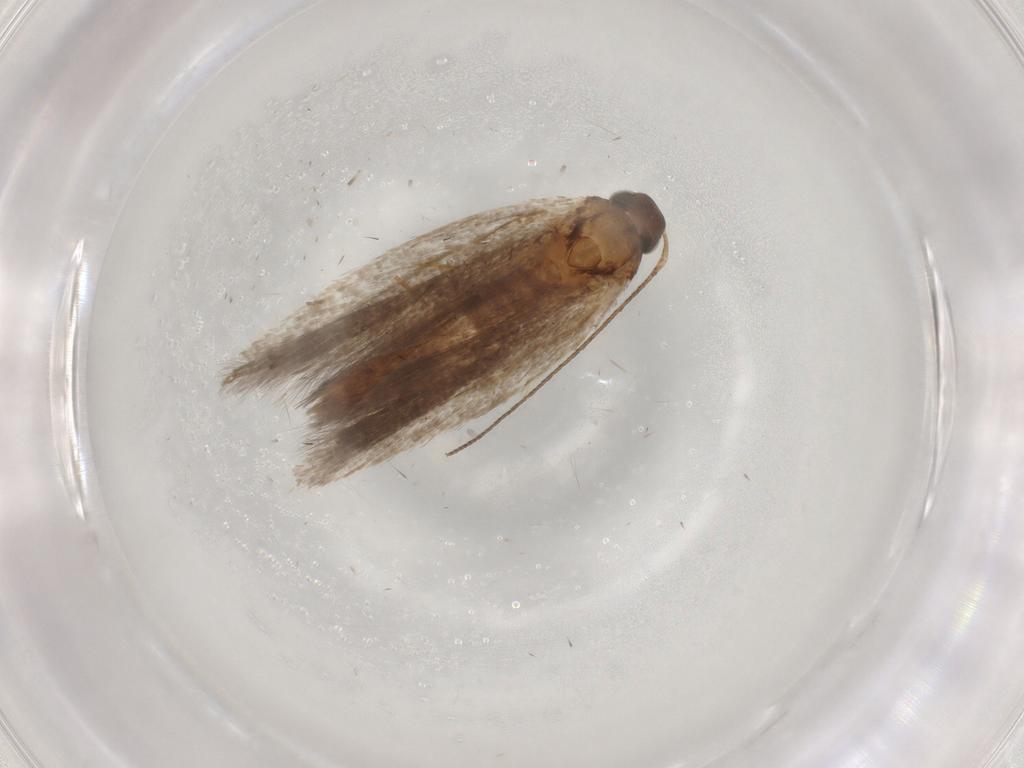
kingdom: Animalia
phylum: Arthropoda
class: Insecta
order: Lepidoptera
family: Gelechiidae
